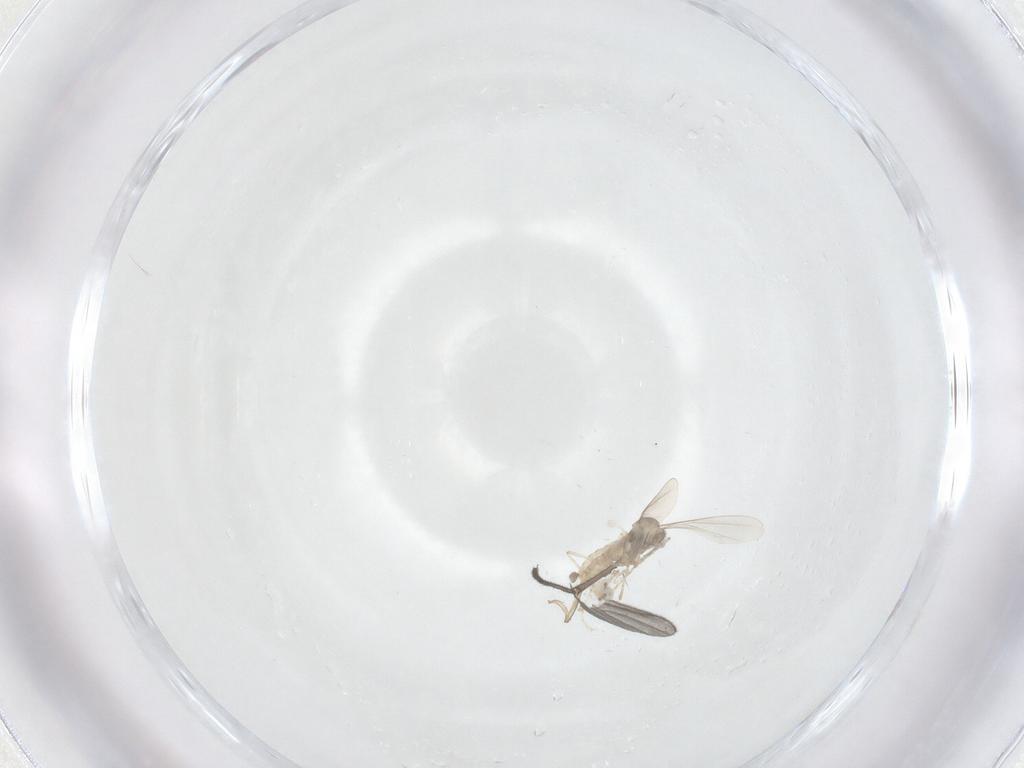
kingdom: Animalia
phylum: Arthropoda
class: Insecta
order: Diptera
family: Cecidomyiidae
